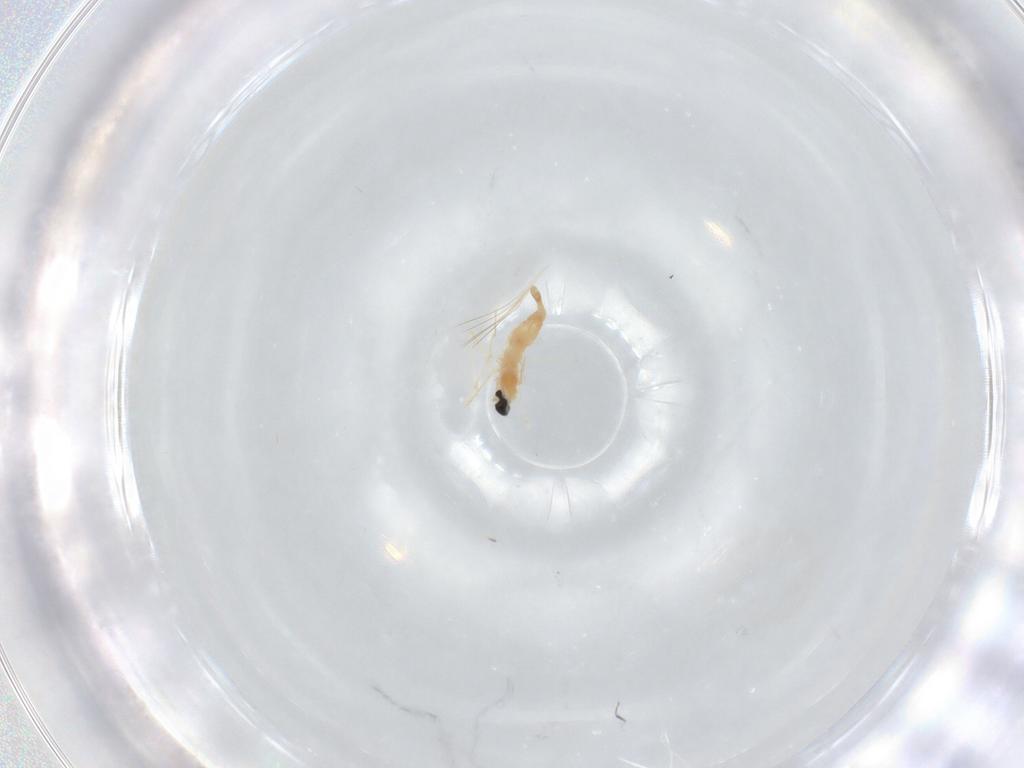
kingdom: Animalia
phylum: Arthropoda
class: Insecta
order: Diptera
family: Cecidomyiidae
